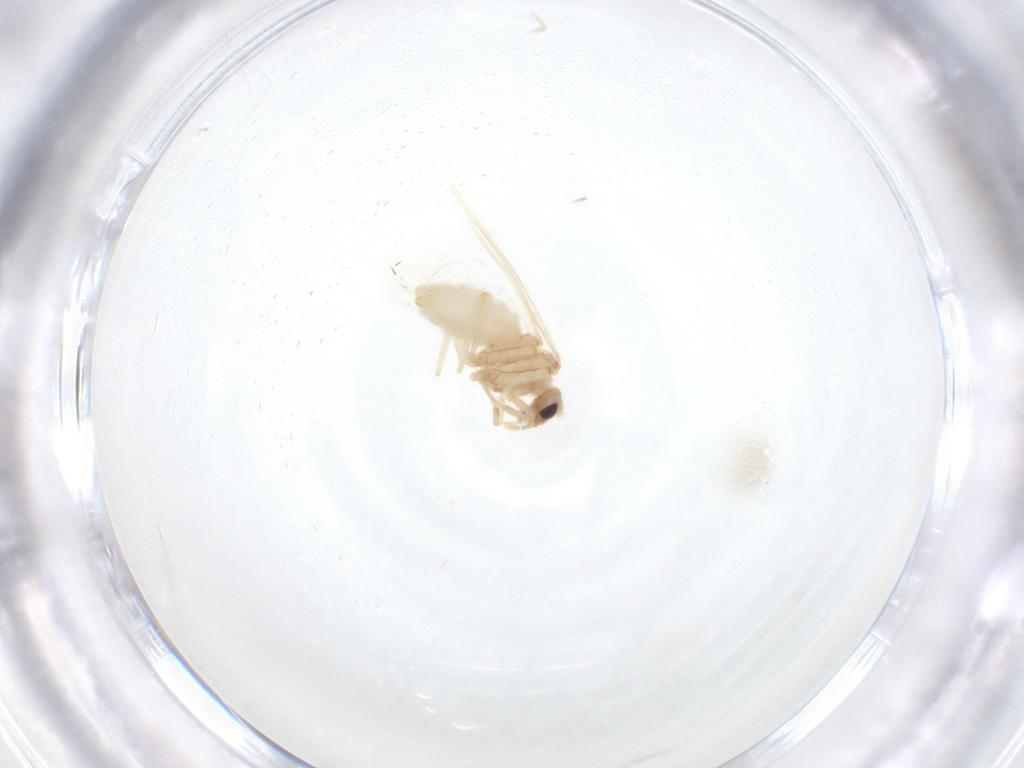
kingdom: Animalia
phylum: Arthropoda
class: Insecta
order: Neuroptera
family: Coniopterygidae
